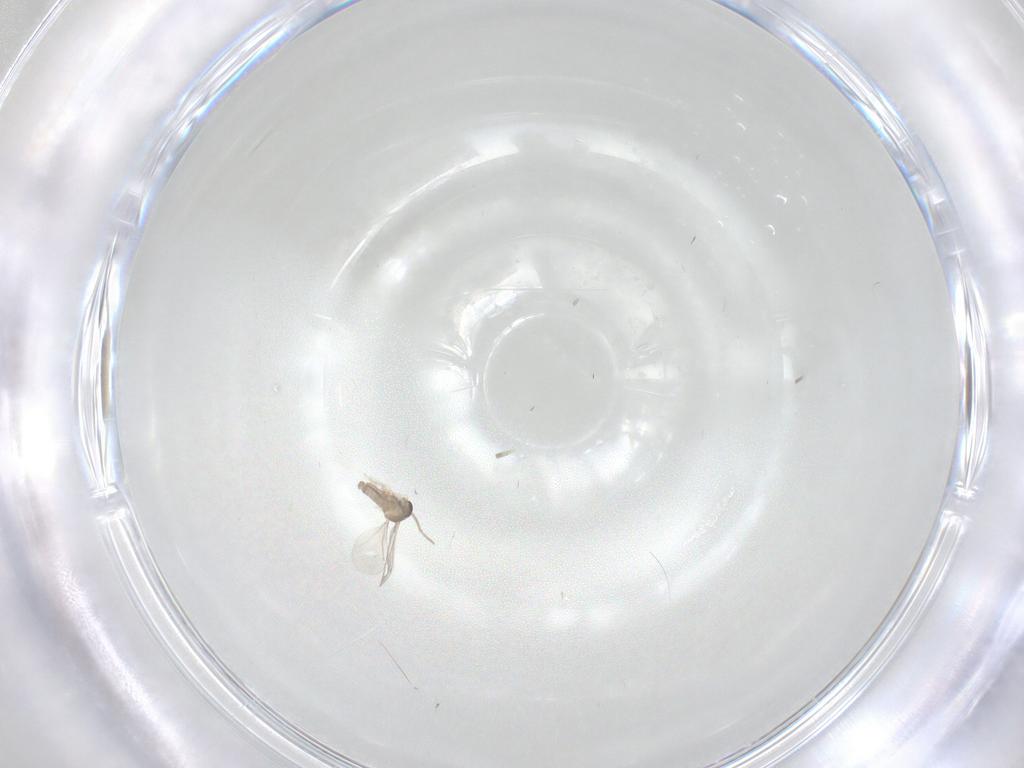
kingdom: Animalia
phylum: Arthropoda
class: Insecta
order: Diptera
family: Cecidomyiidae
